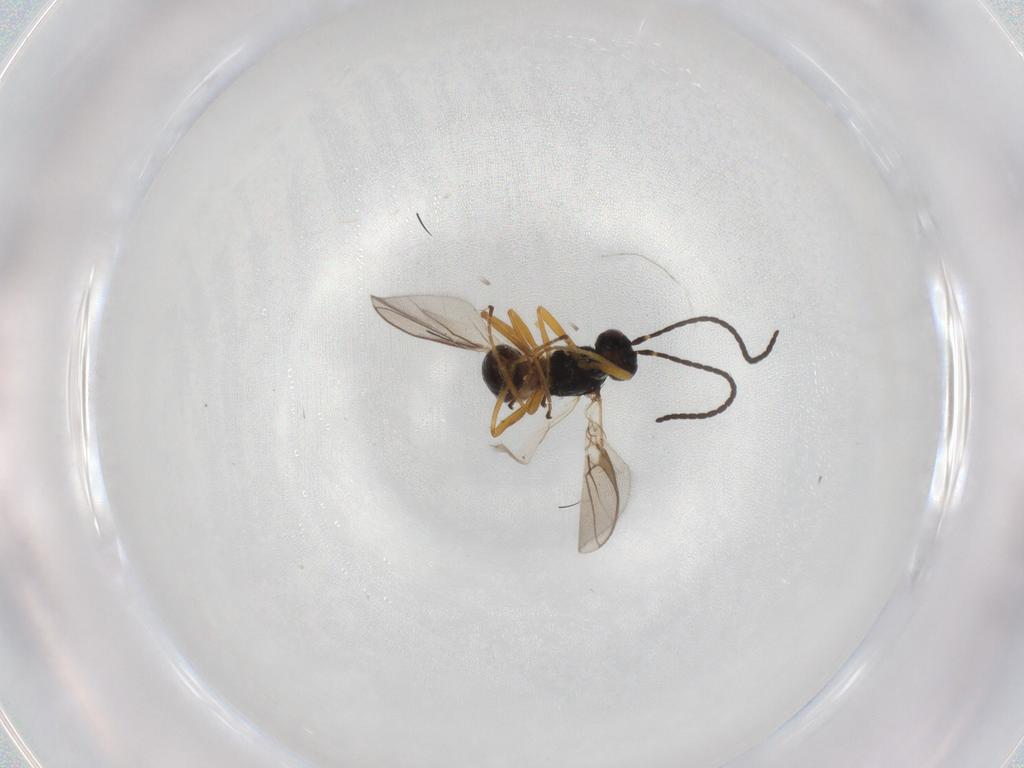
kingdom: Animalia
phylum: Arthropoda
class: Insecta
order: Hymenoptera
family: Braconidae
